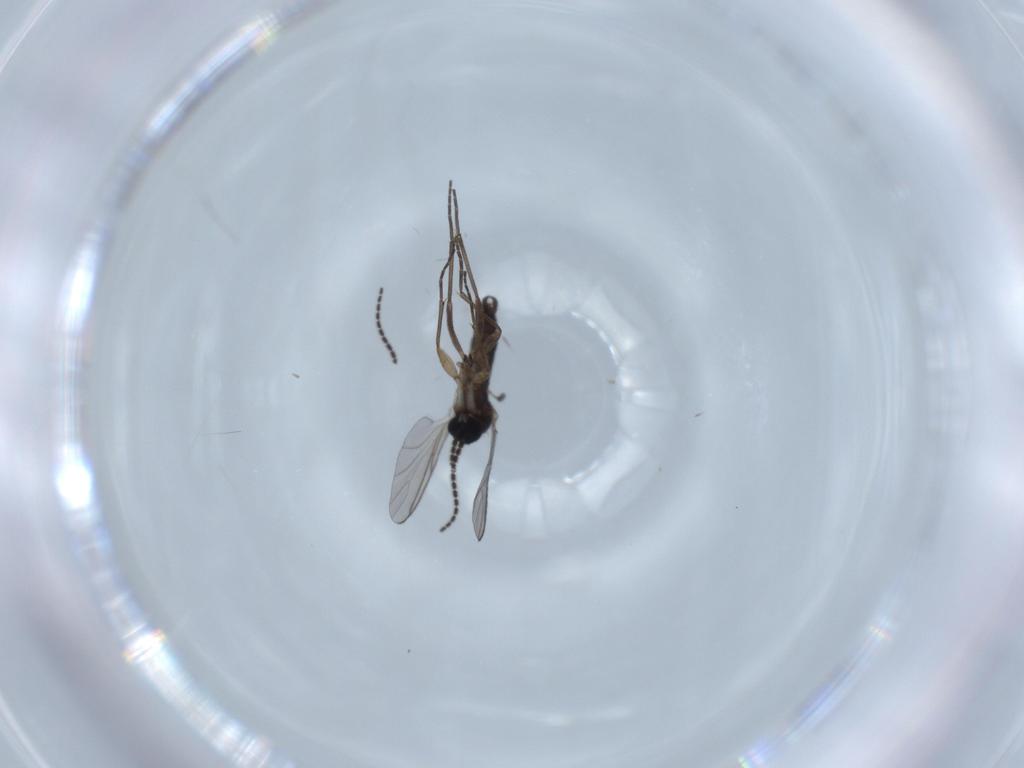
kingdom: Animalia
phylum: Arthropoda
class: Insecta
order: Diptera
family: Sciaridae
